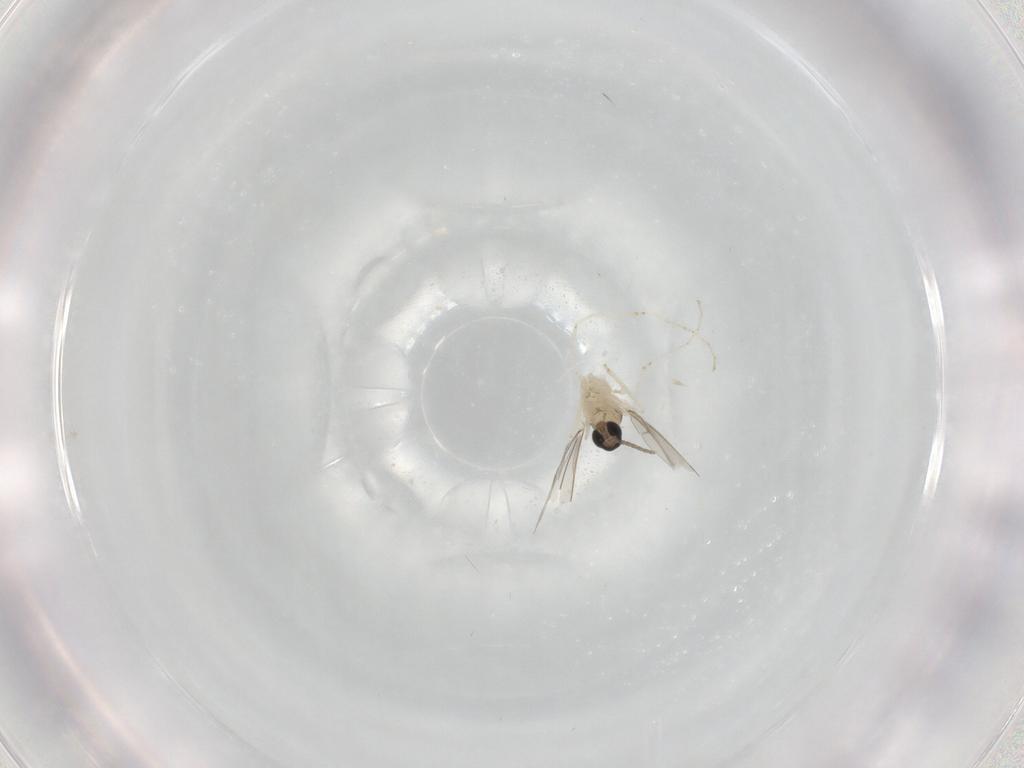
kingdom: Animalia
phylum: Arthropoda
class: Insecta
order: Diptera
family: Cecidomyiidae
